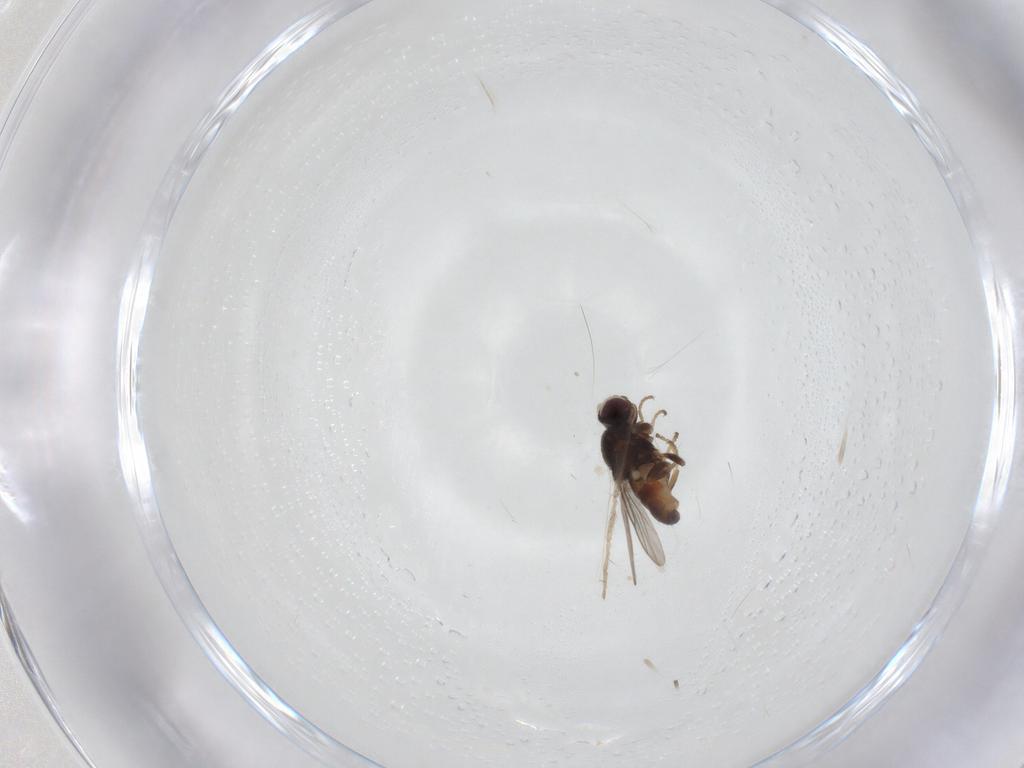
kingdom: Animalia
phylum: Arthropoda
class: Insecta
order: Diptera
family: Chloropidae
